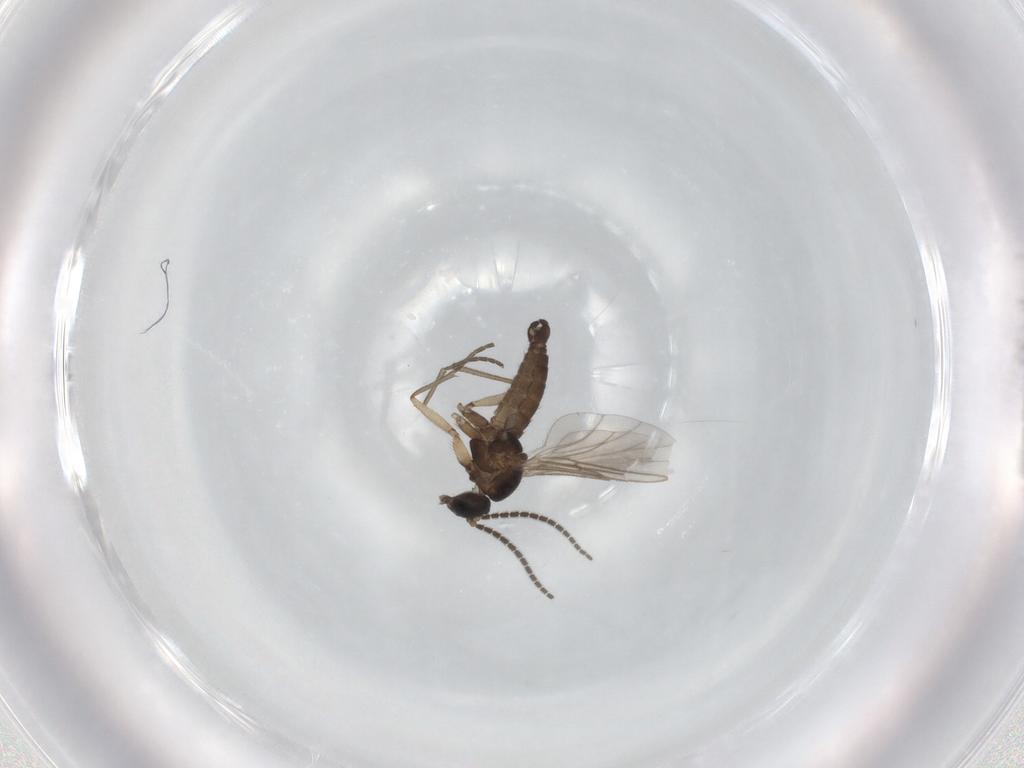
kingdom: Animalia
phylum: Arthropoda
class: Insecta
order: Diptera
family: Sciaridae
